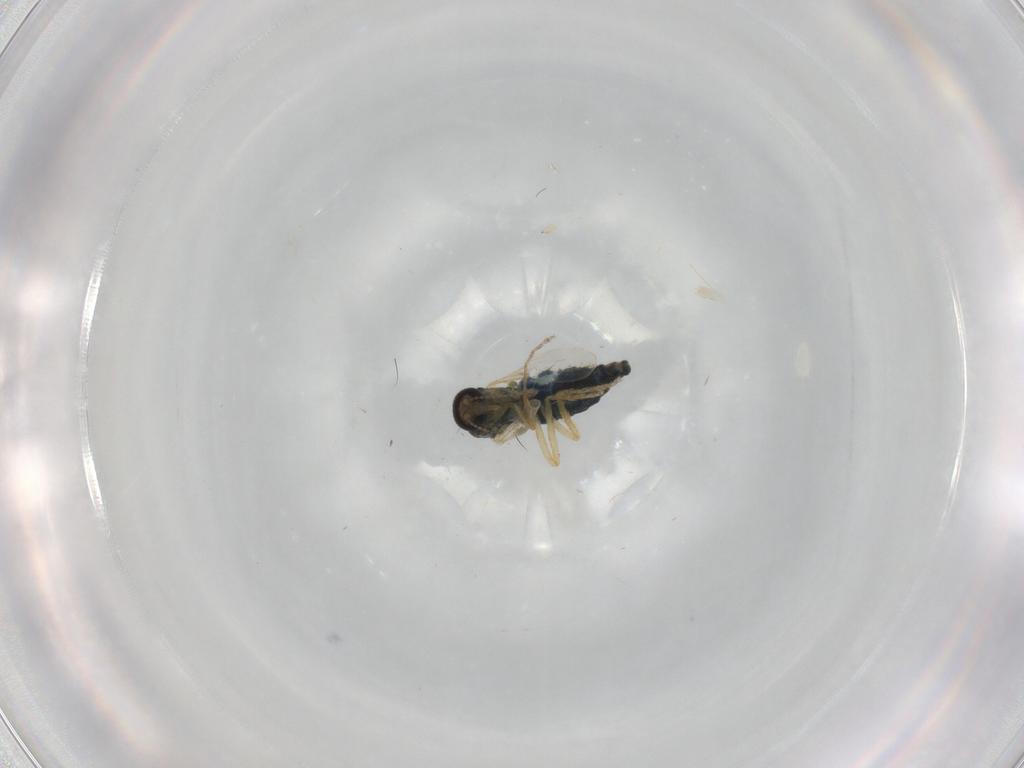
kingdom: Animalia
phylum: Arthropoda
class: Insecta
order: Diptera
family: Ceratopogonidae
